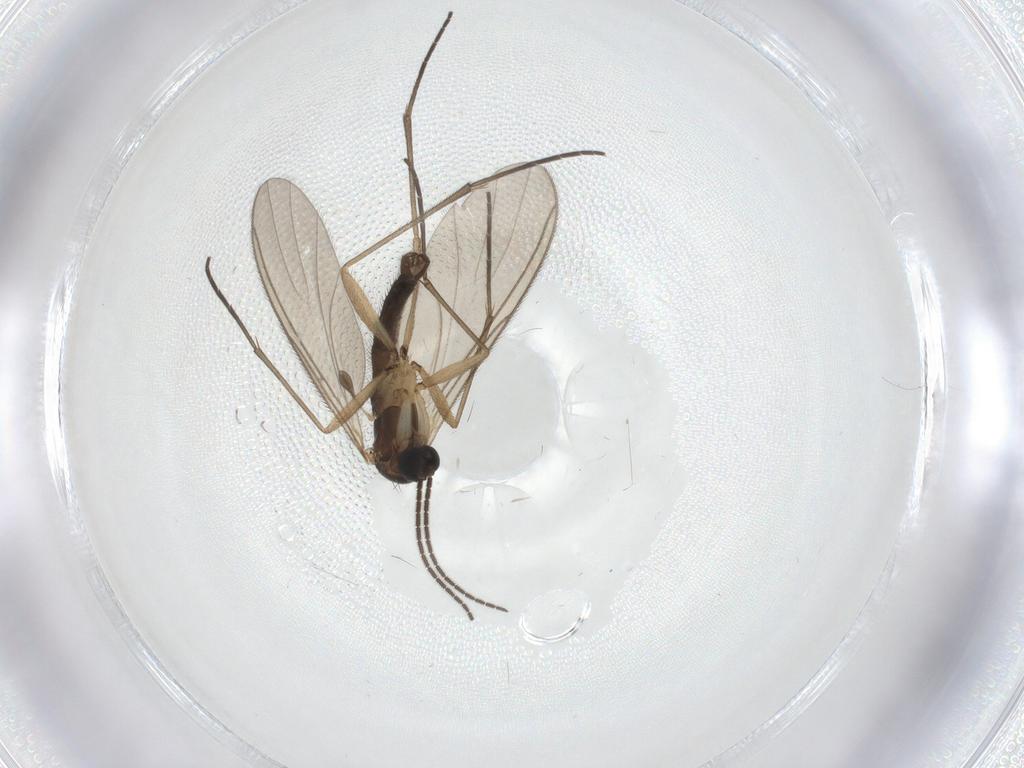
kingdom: Animalia
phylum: Arthropoda
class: Insecta
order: Diptera
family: Sciaridae
